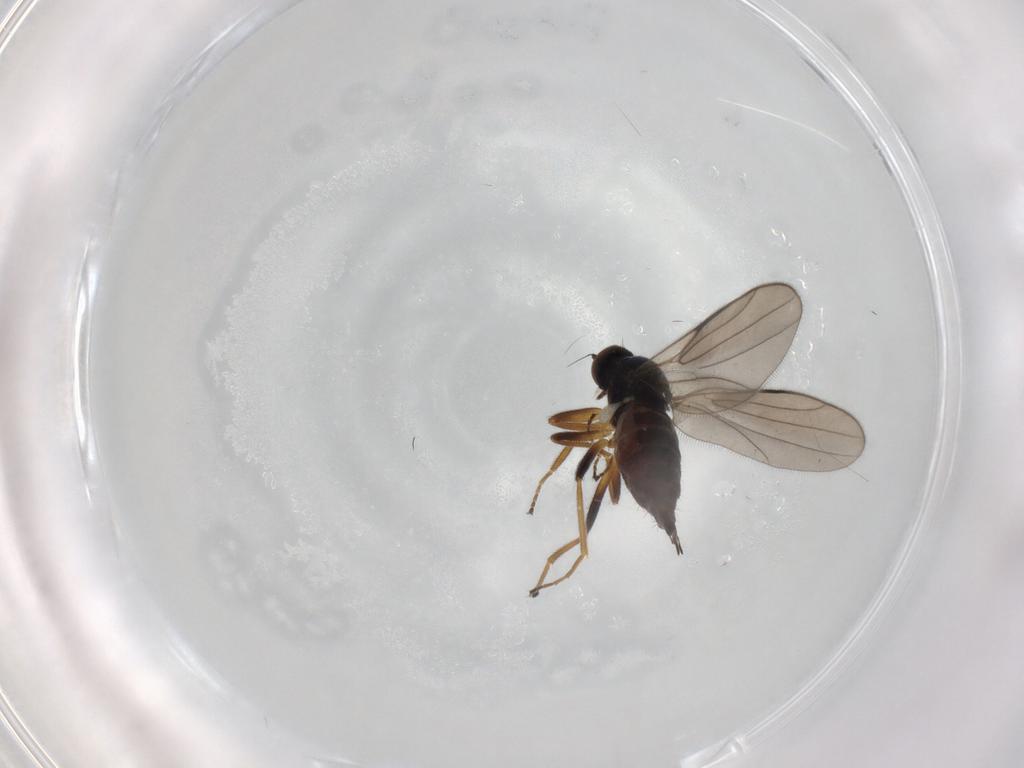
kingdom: Animalia
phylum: Arthropoda
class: Insecta
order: Diptera
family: Hybotidae
